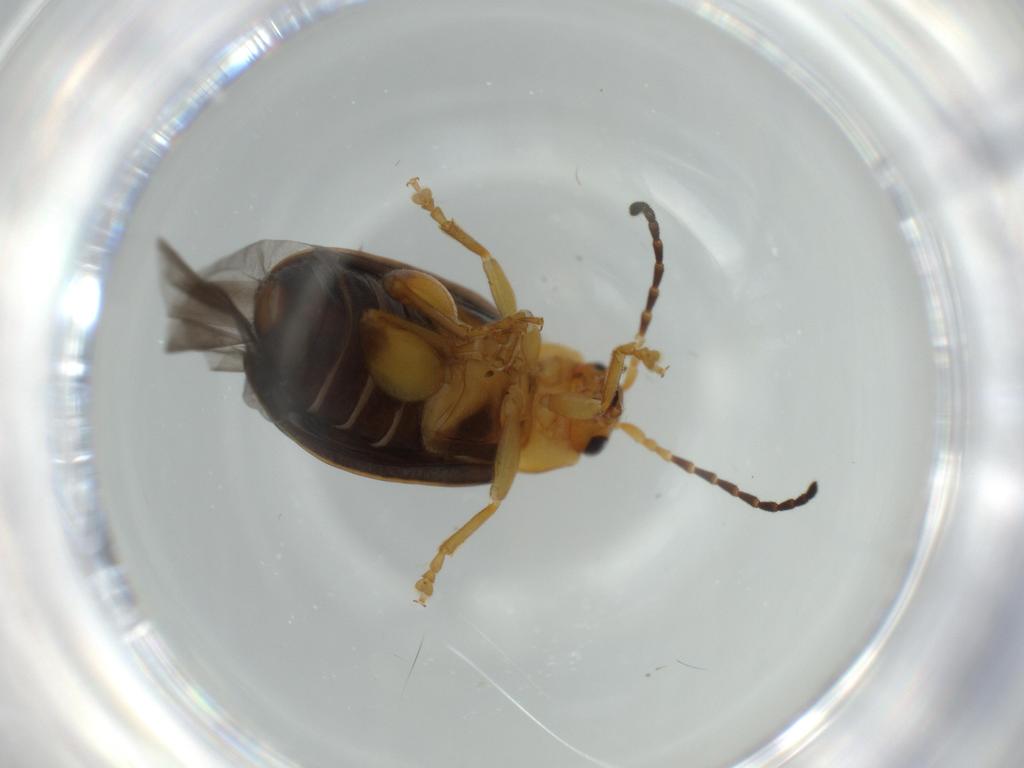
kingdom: Animalia
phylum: Arthropoda
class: Insecta
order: Coleoptera
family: Chrysomelidae
